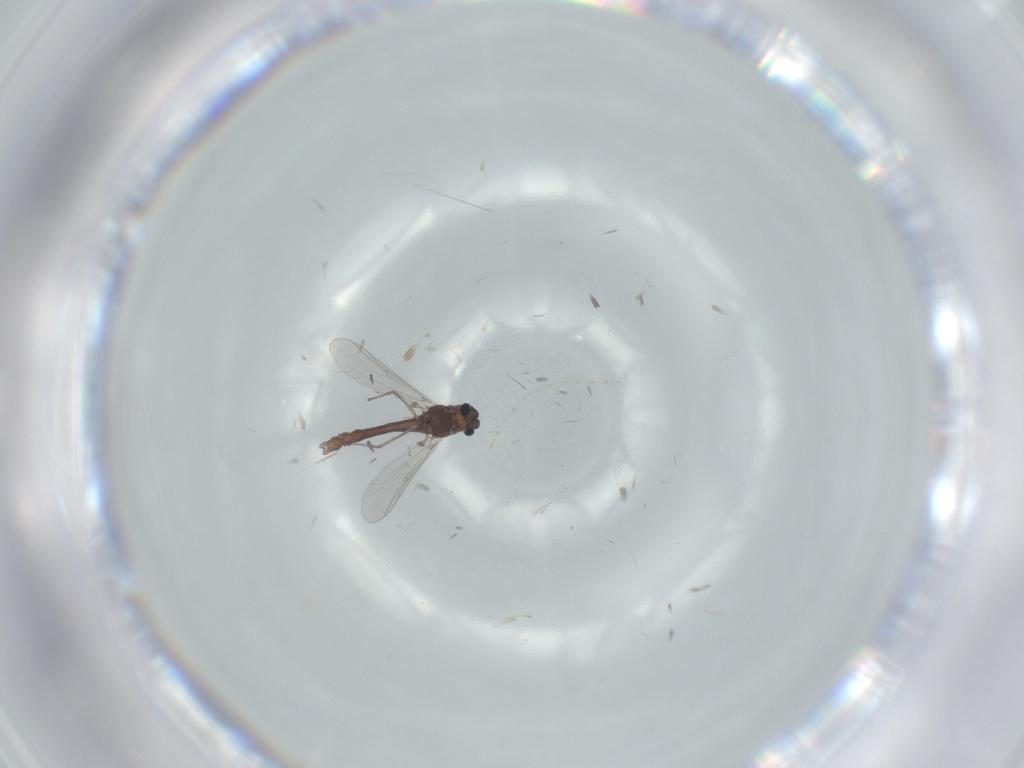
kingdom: Animalia
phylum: Arthropoda
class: Insecta
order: Diptera
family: Chironomidae
